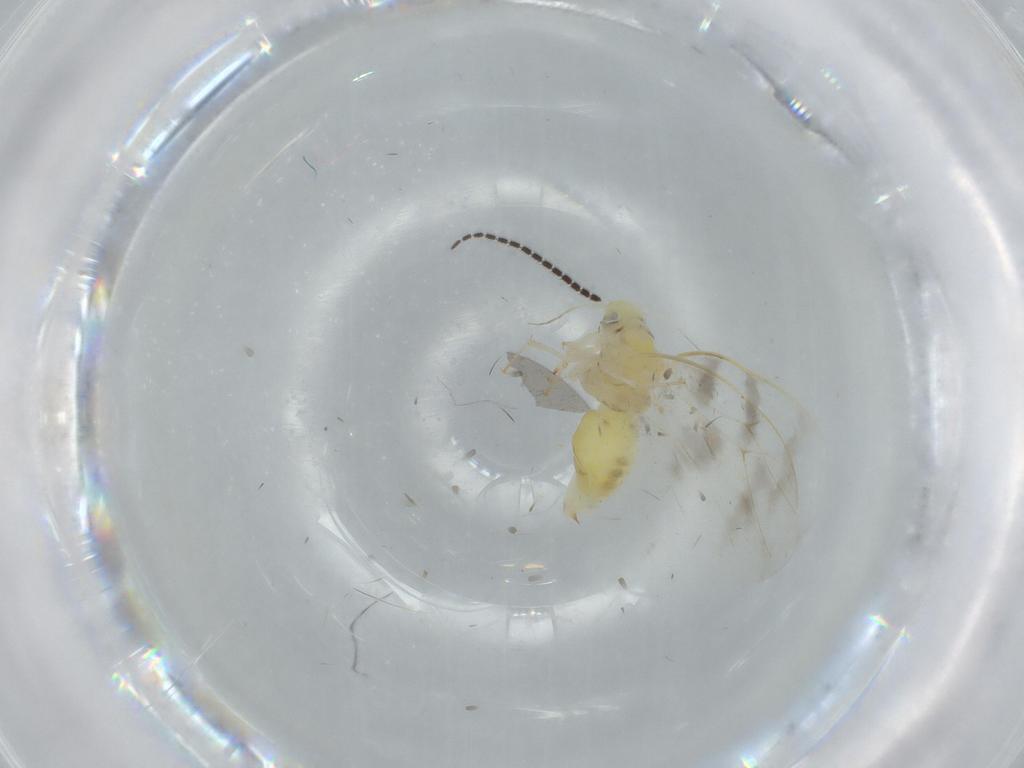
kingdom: Animalia
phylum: Arthropoda
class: Insecta
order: Hemiptera
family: Aleyrodidae
